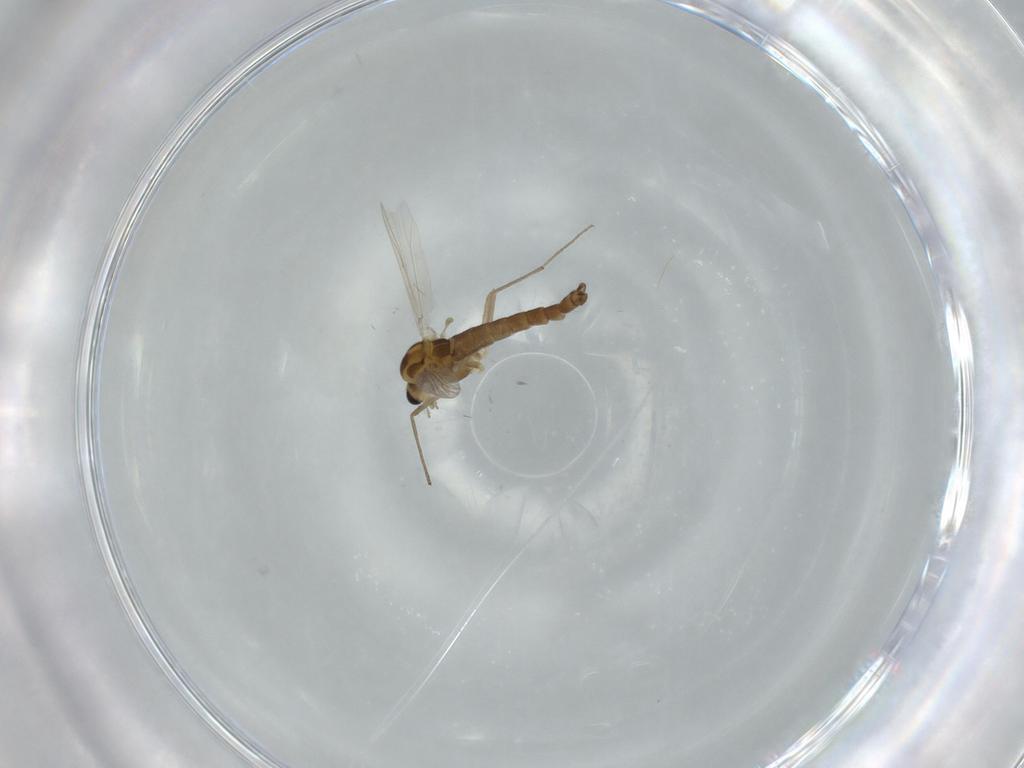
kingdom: Animalia
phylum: Arthropoda
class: Insecta
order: Diptera
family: Chironomidae
